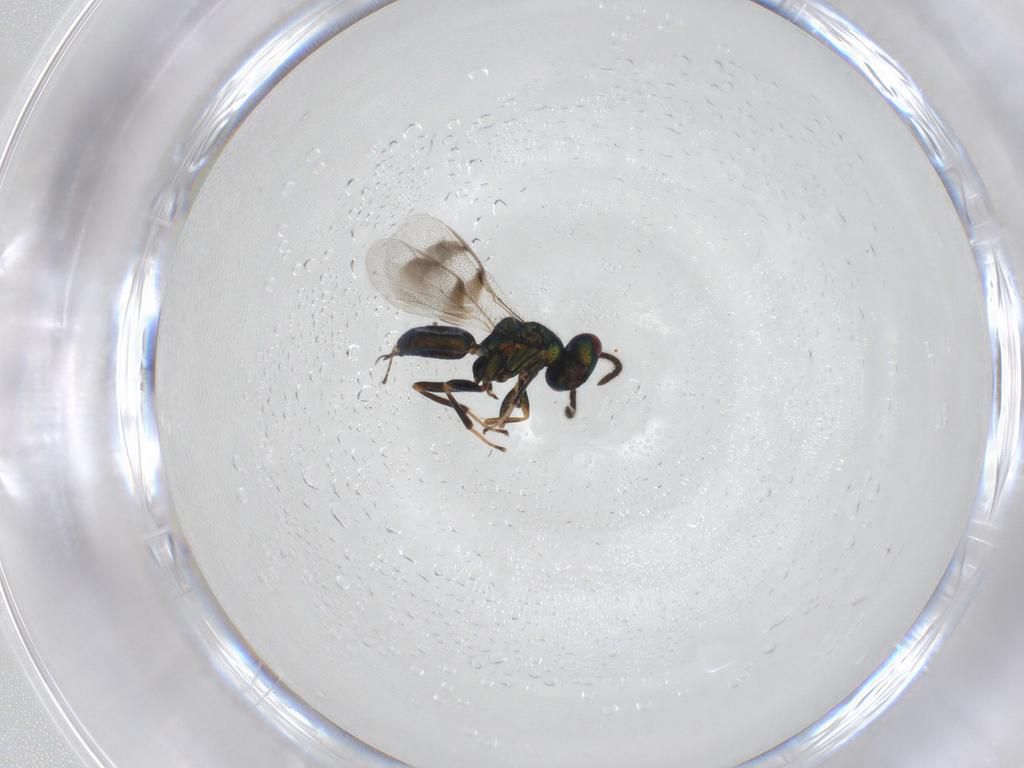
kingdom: Animalia
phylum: Arthropoda
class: Insecta
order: Hymenoptera
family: Pteromalidae
